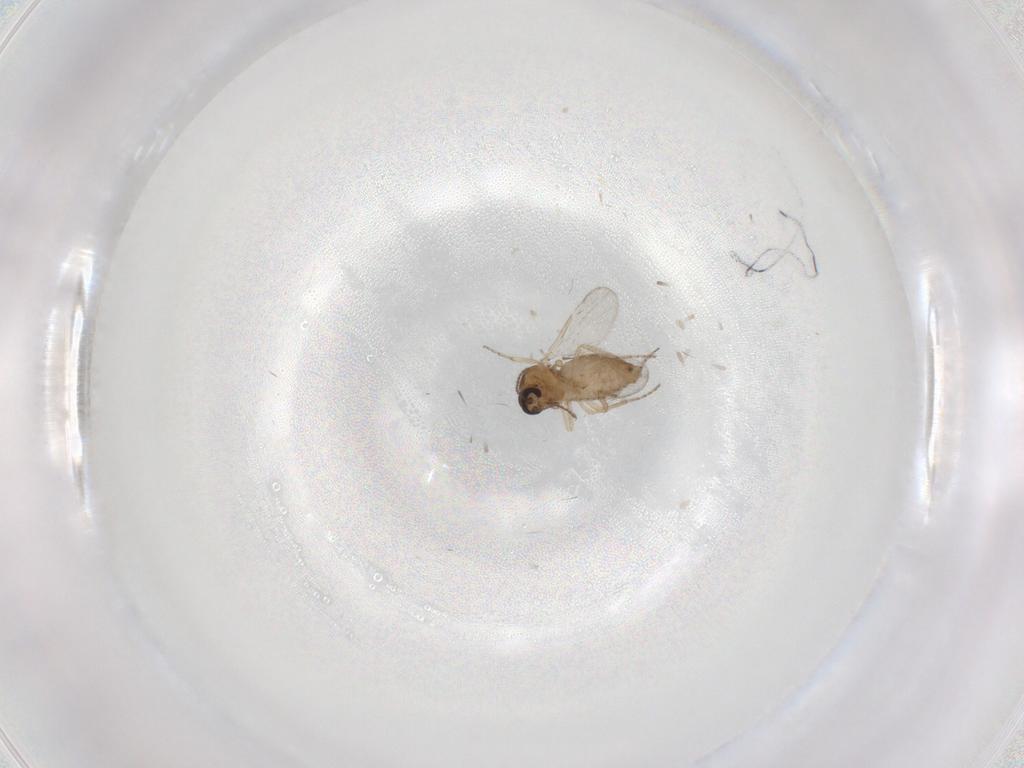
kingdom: Animalia
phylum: Arthropoda
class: Insecta
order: Diptera
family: Ceratopogonidae
